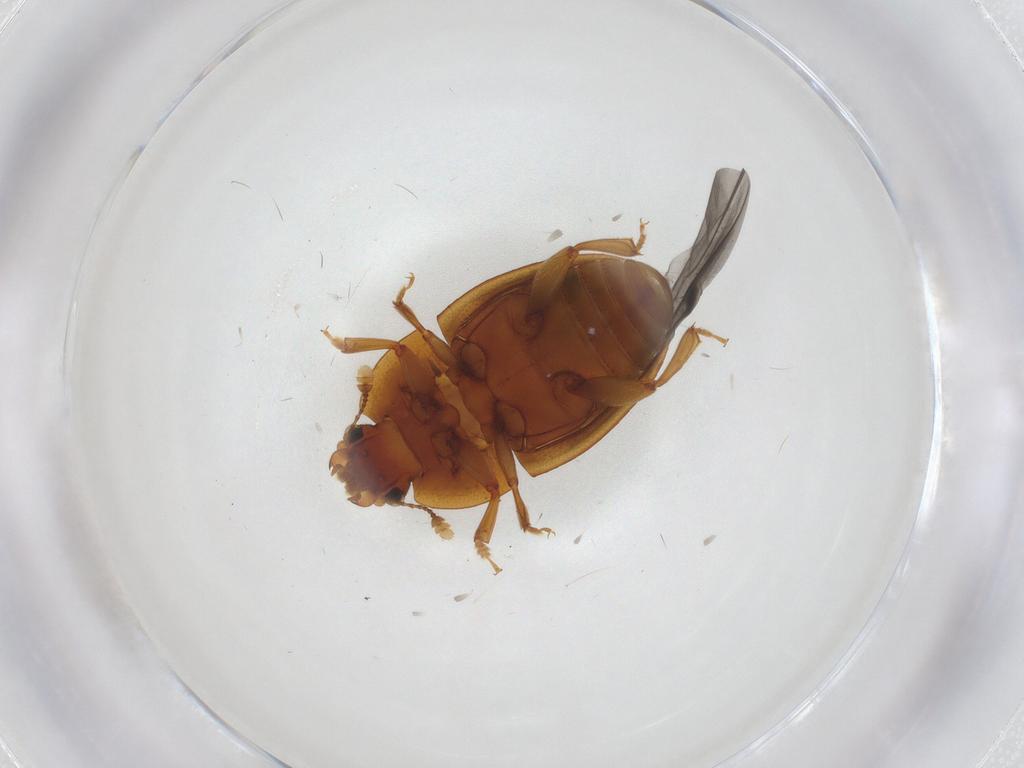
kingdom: Animalia
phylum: Arthropoda
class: Insecta
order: Coleoptera
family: Nitidulidae
